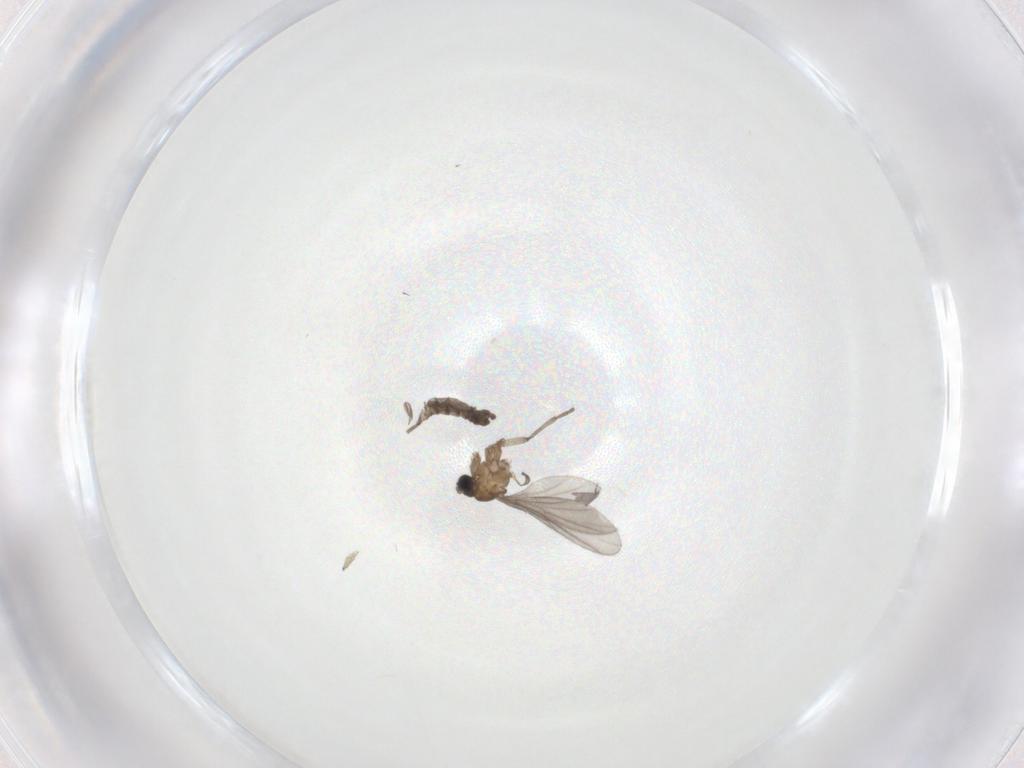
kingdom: Animalia
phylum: Arthropoda
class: Insecta
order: Diptera
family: Sciaridae
